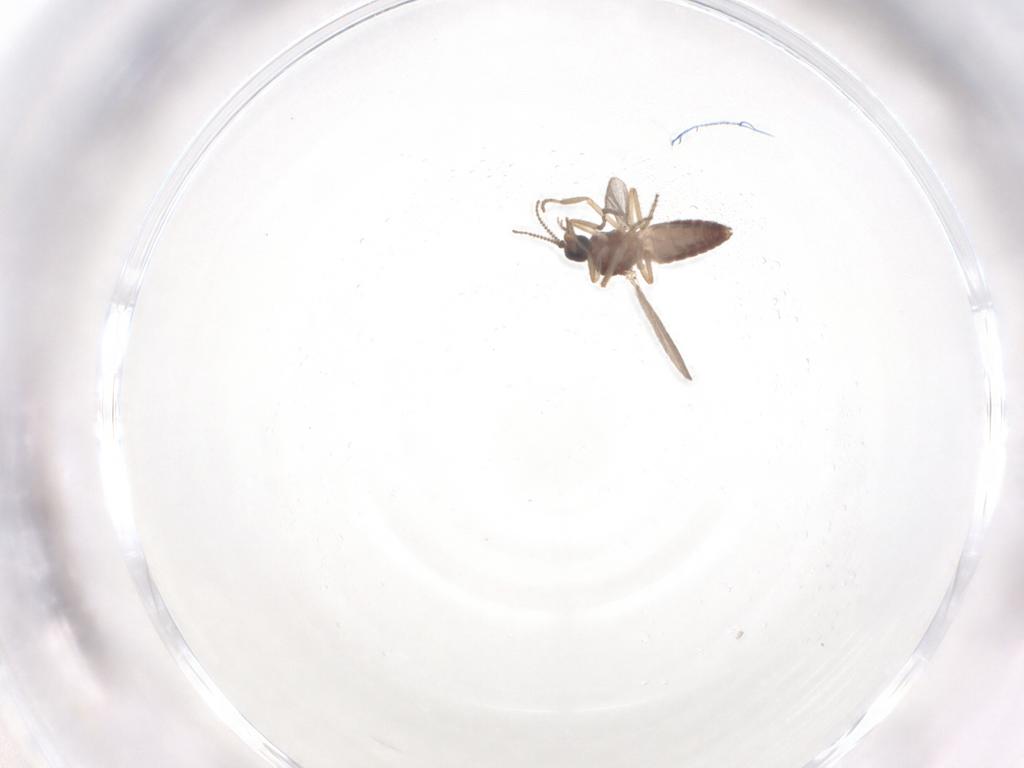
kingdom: Animalia
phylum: Arthropoda
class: Insecta
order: Diptera
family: Ceratopogonidae
